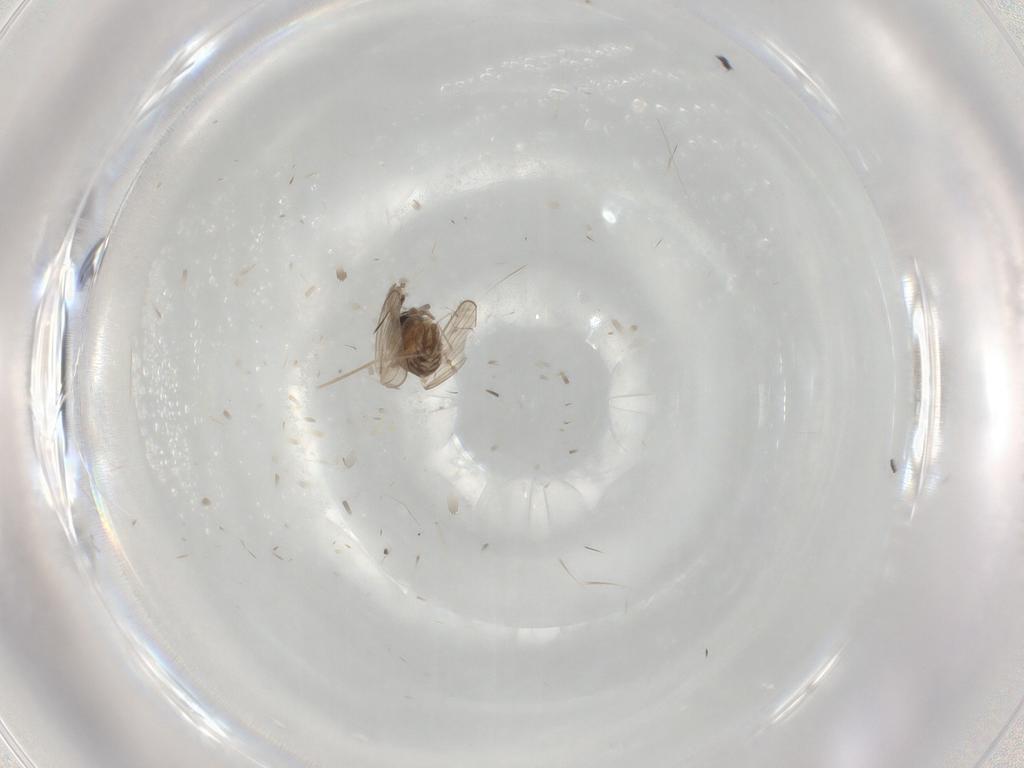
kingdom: Animalia
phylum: Arthropoda
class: Insecta
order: Diptera
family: Psychodidae
